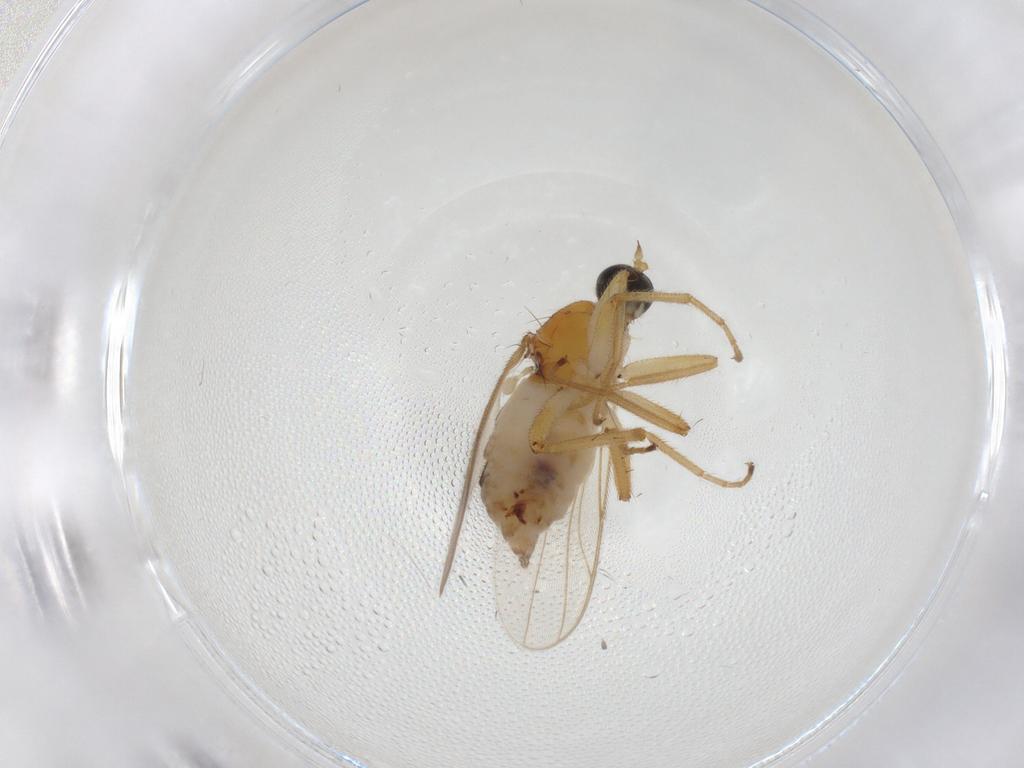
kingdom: Animalia
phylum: Arthropoda
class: Insecta
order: Diptera
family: Hybotidae
